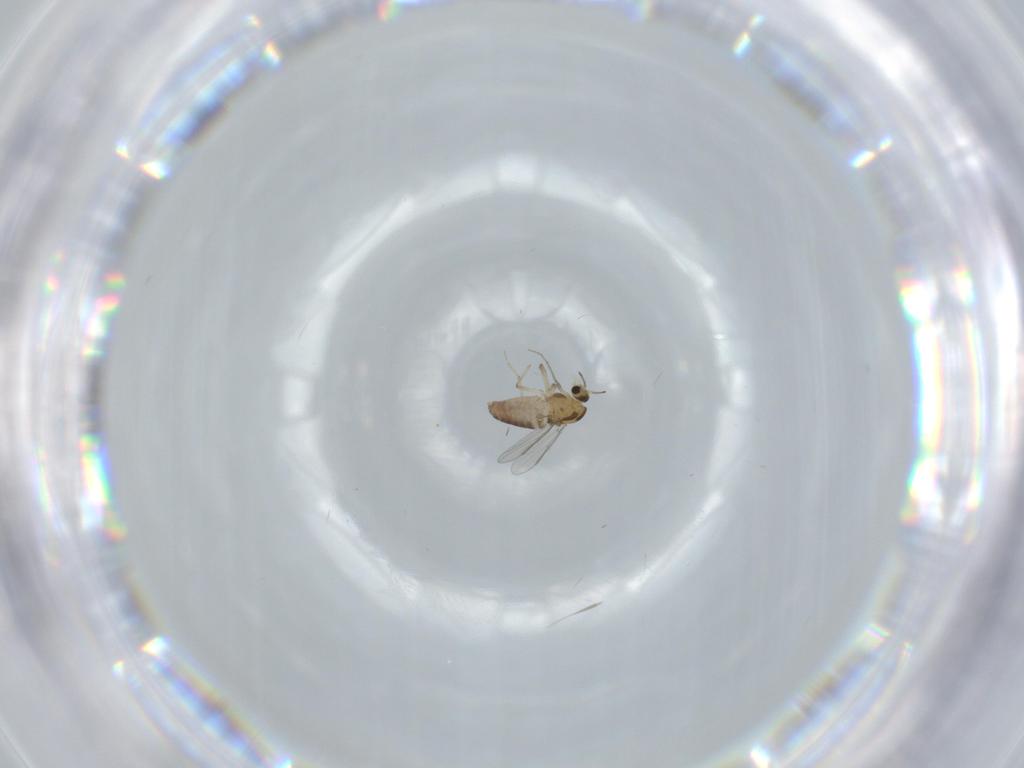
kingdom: Animalia
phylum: Arthropoda
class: Insecta
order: Diptera
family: Chironomidae
